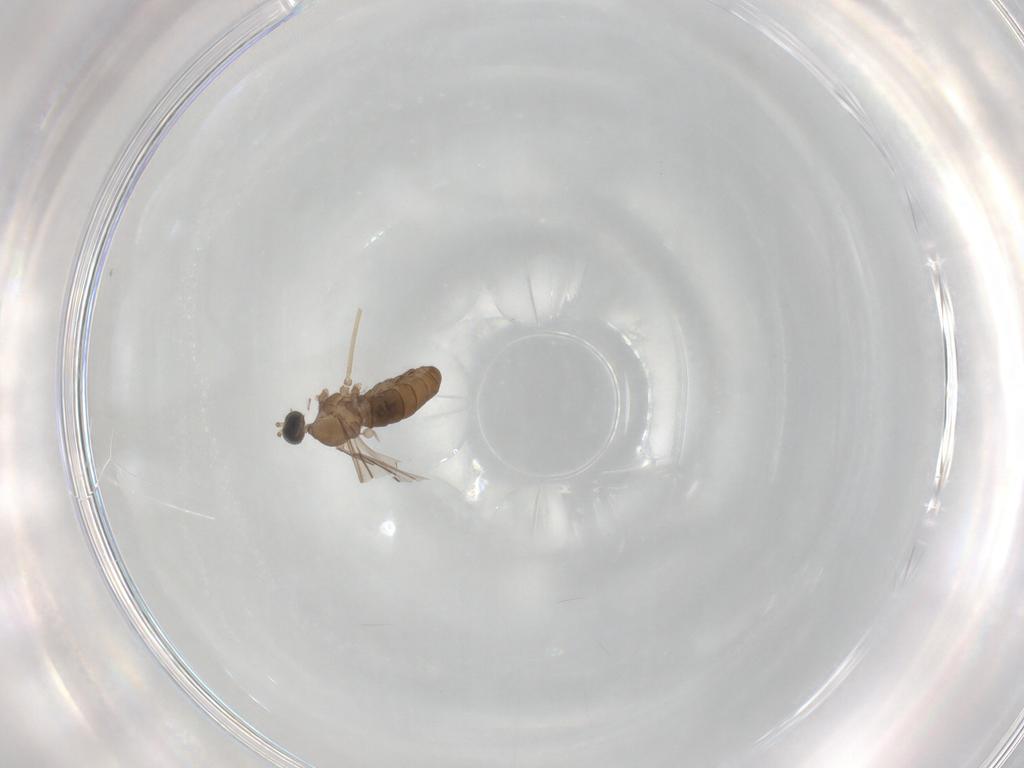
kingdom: Animalia
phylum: Arthropoda
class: Insecta
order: Diptera
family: Cecidomyiidae
